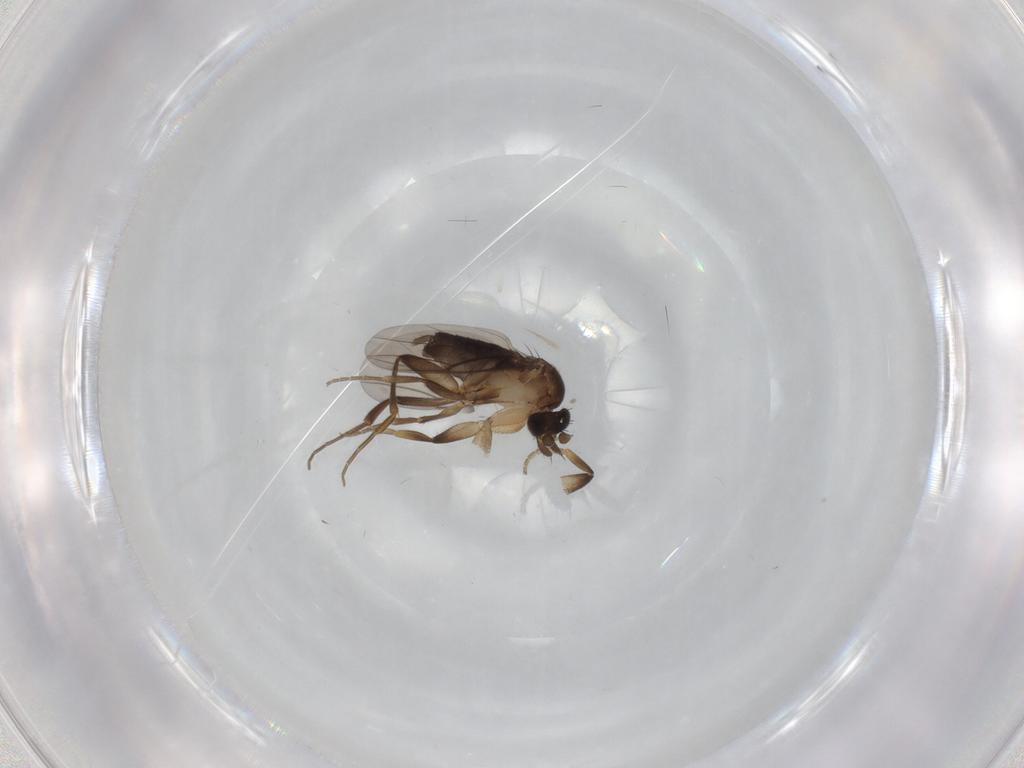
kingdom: Animalia
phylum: Arthropoda
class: Insecta
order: Diptera
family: Phoridae
